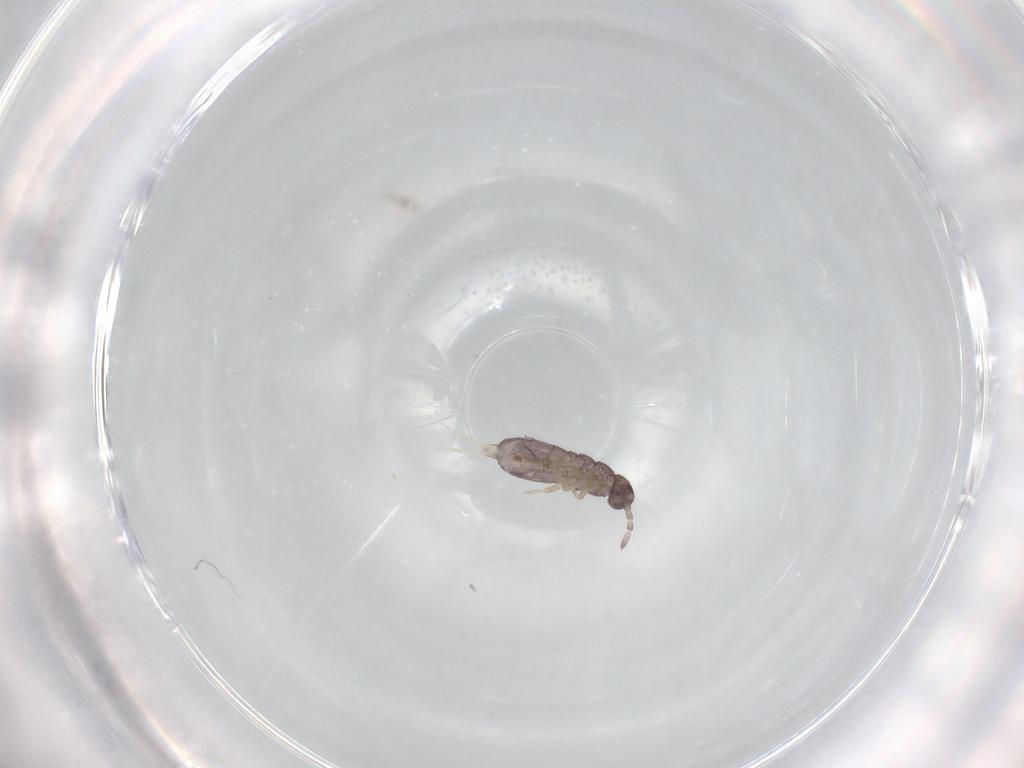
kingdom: Animalia
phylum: Arthropoda
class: Collembola
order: Entomobryomorpha
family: Isotomidae
